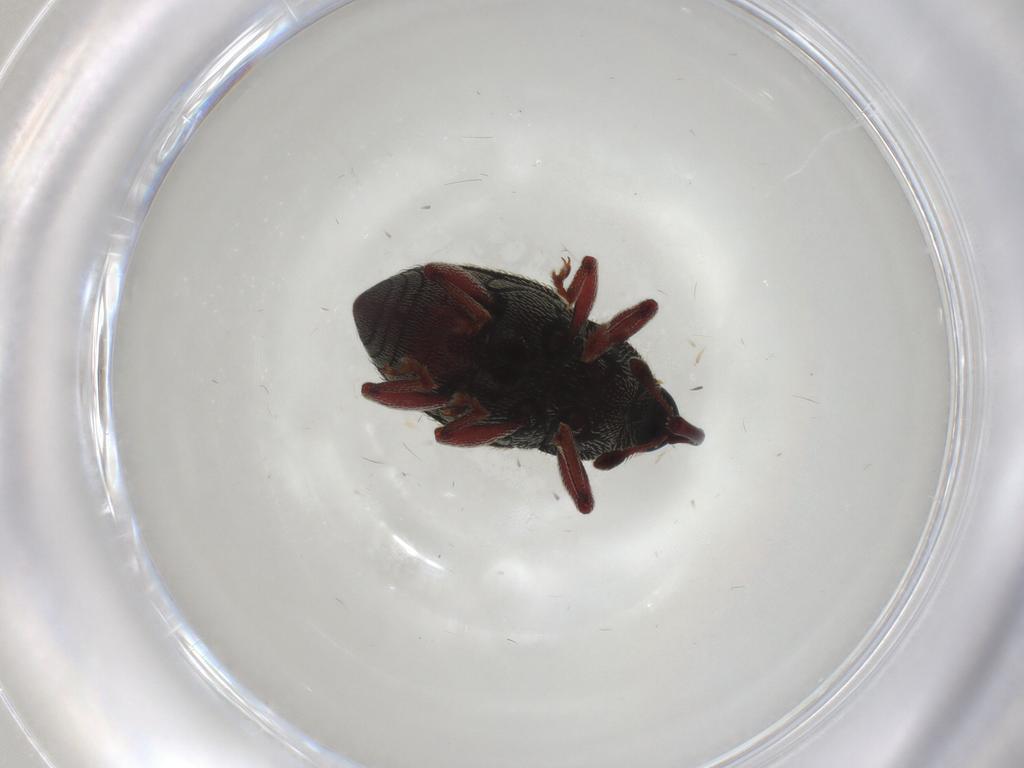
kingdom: Animalia
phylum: Arthropoda
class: Insecta
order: Coleoptera
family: Curculionidae
